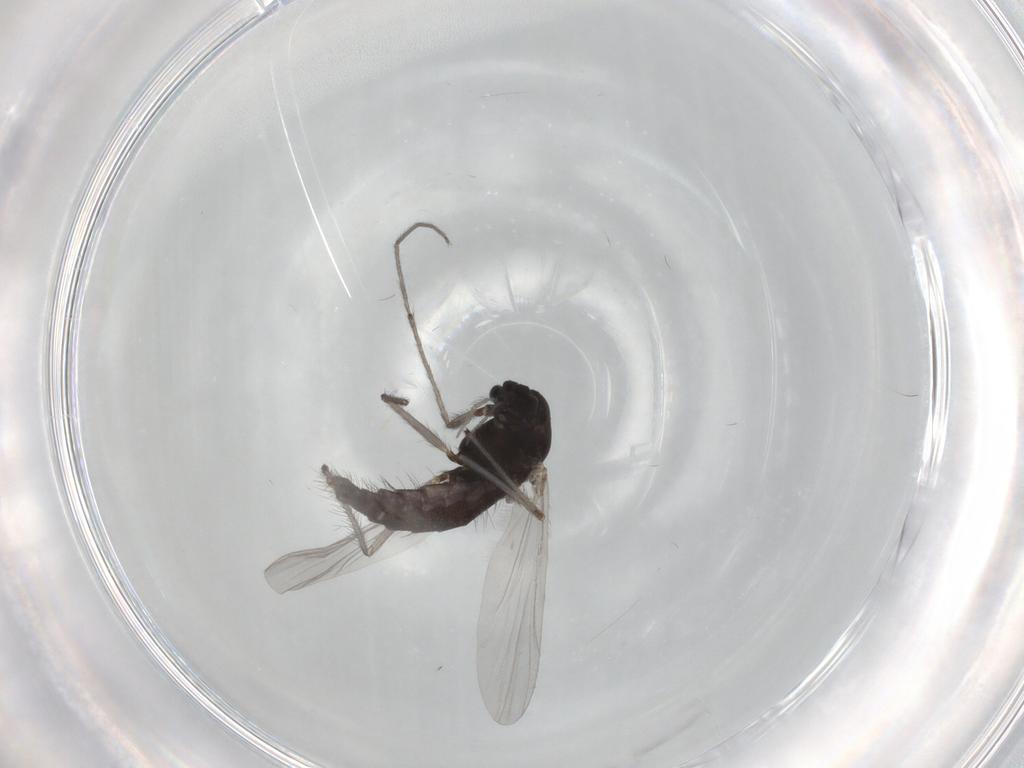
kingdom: Animalia
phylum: Arthropoda
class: Insecta
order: Diptera
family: Chironomidae
